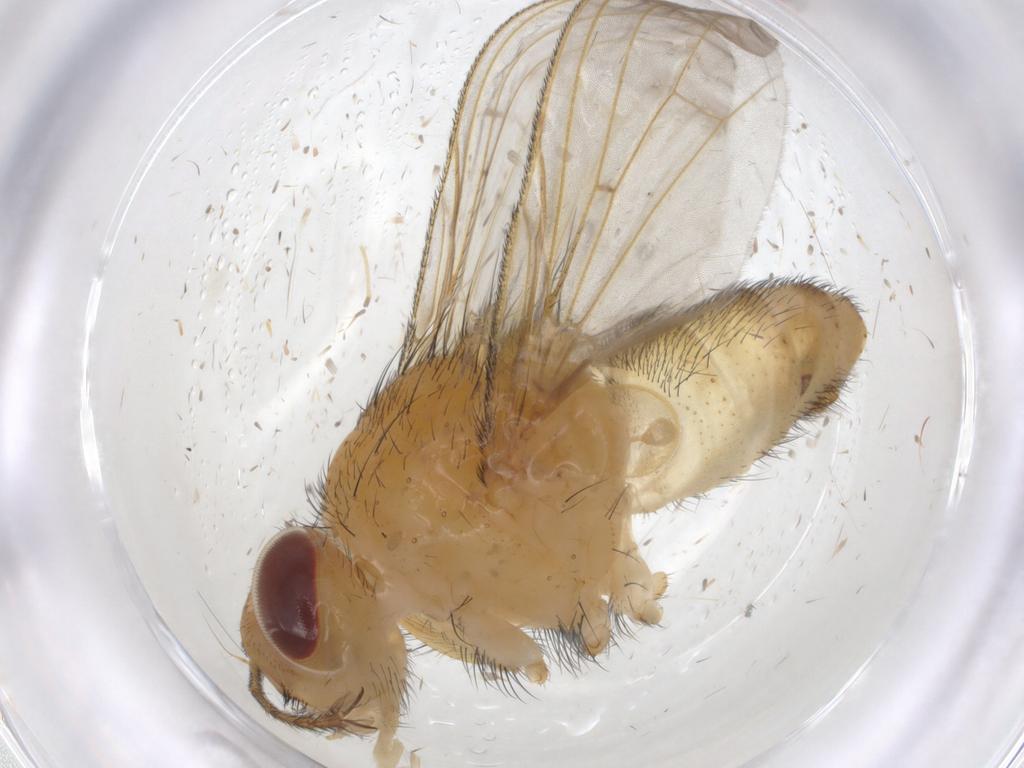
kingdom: Animalia
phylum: Arthropoda
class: Insecta
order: Diptera
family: Tachinidae
